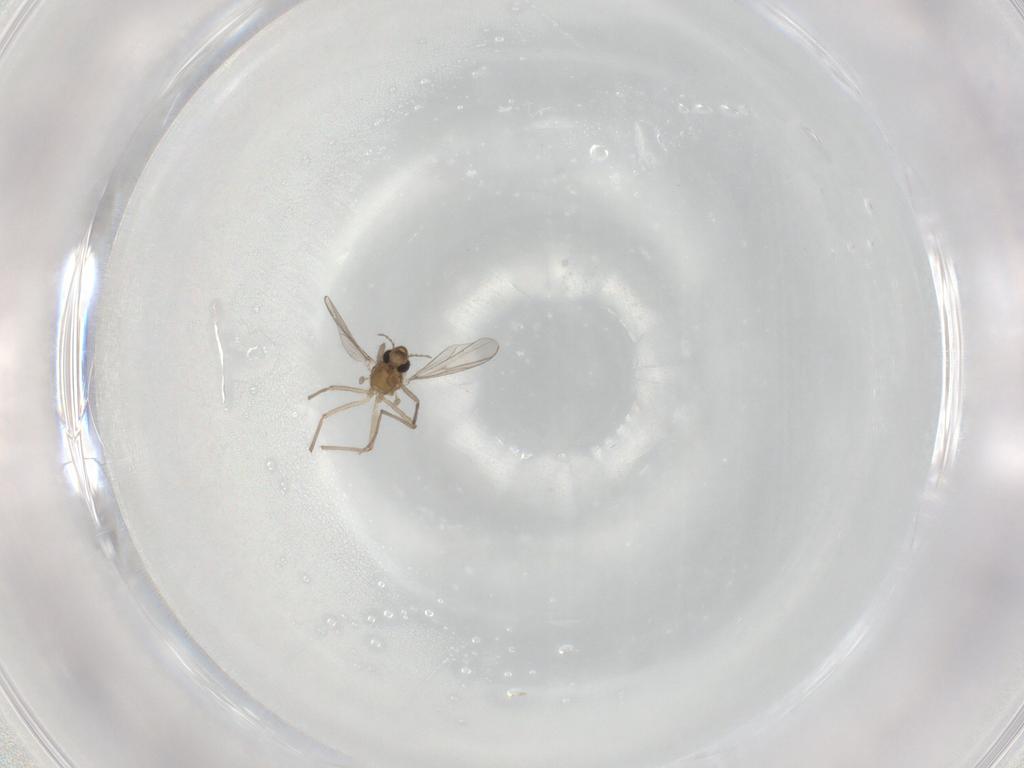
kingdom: Animalia
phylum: Arthropoda
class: Insecta
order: Diptera
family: Chironomidae
